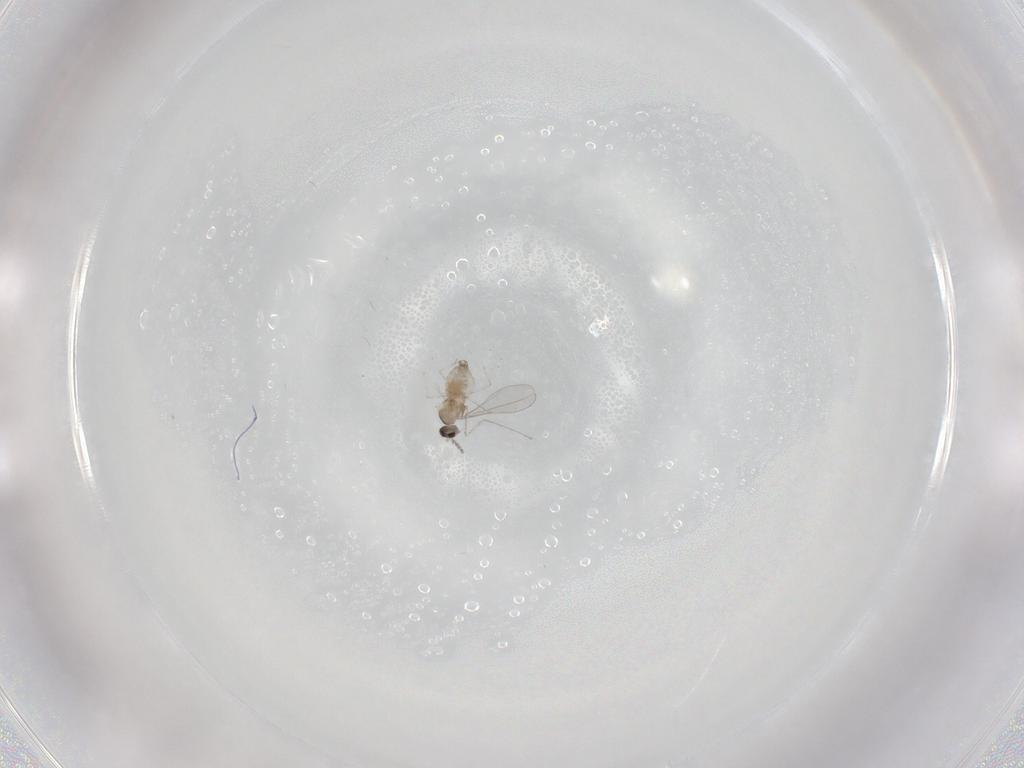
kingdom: Animalia
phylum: Arthropoda
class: Insecta
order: Diptera
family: Cecidomyiidae
